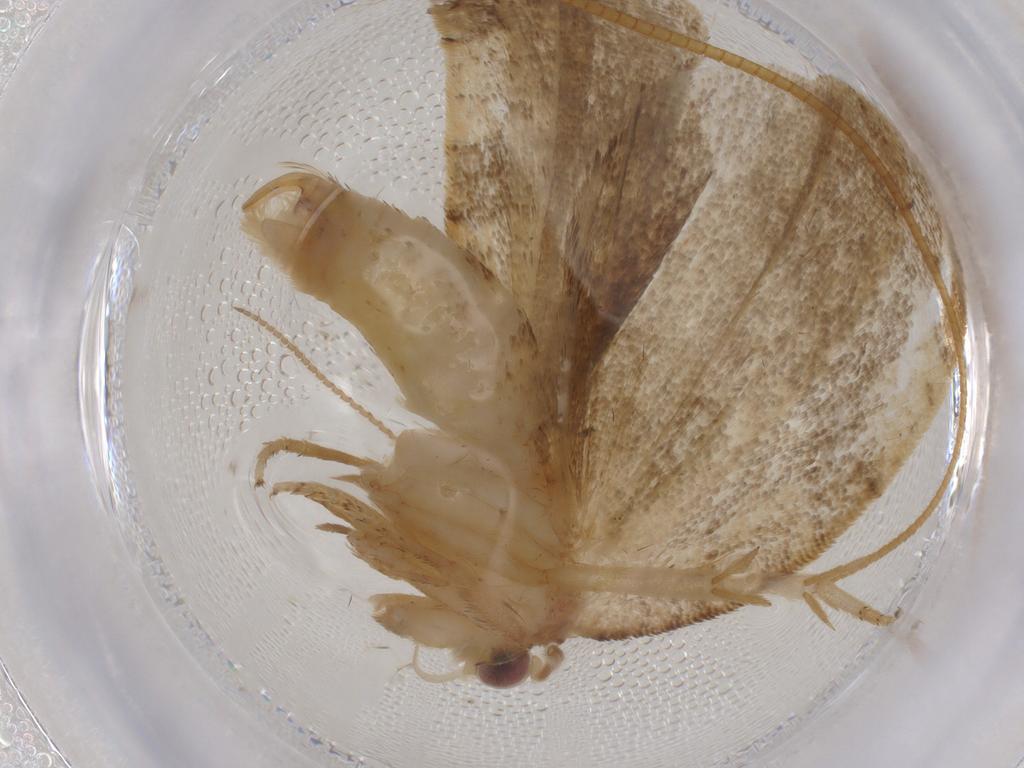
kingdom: Animalia
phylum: Arthropoda
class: Insecta
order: Lepidoptera
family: Tortricidae
